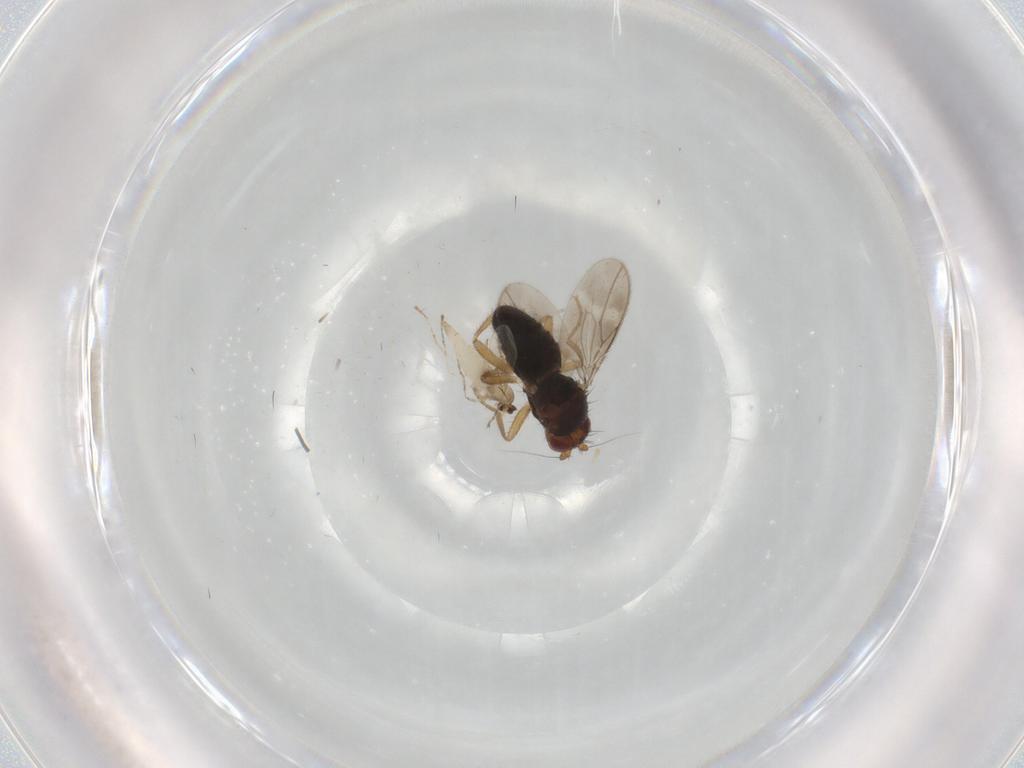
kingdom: Animalia
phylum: Arthropoda
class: Insecta
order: Diptera
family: Sphaeroceridae
